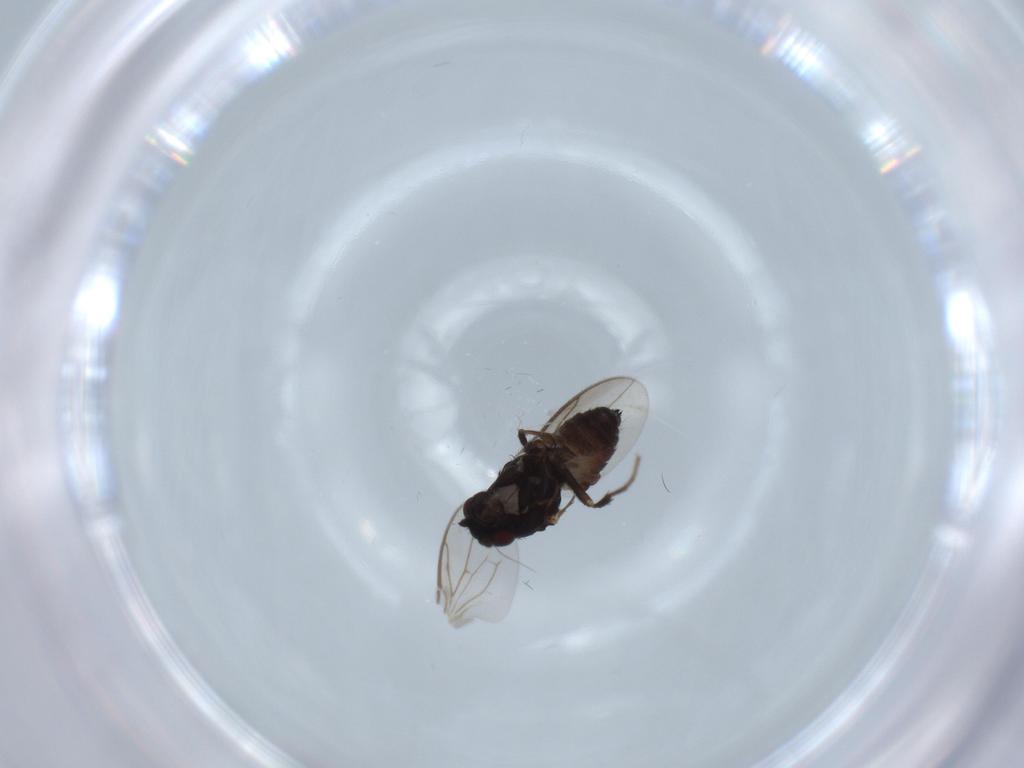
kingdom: Animalia
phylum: Arthropoda
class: Insecta
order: Diptera
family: Sphaeroceridae
